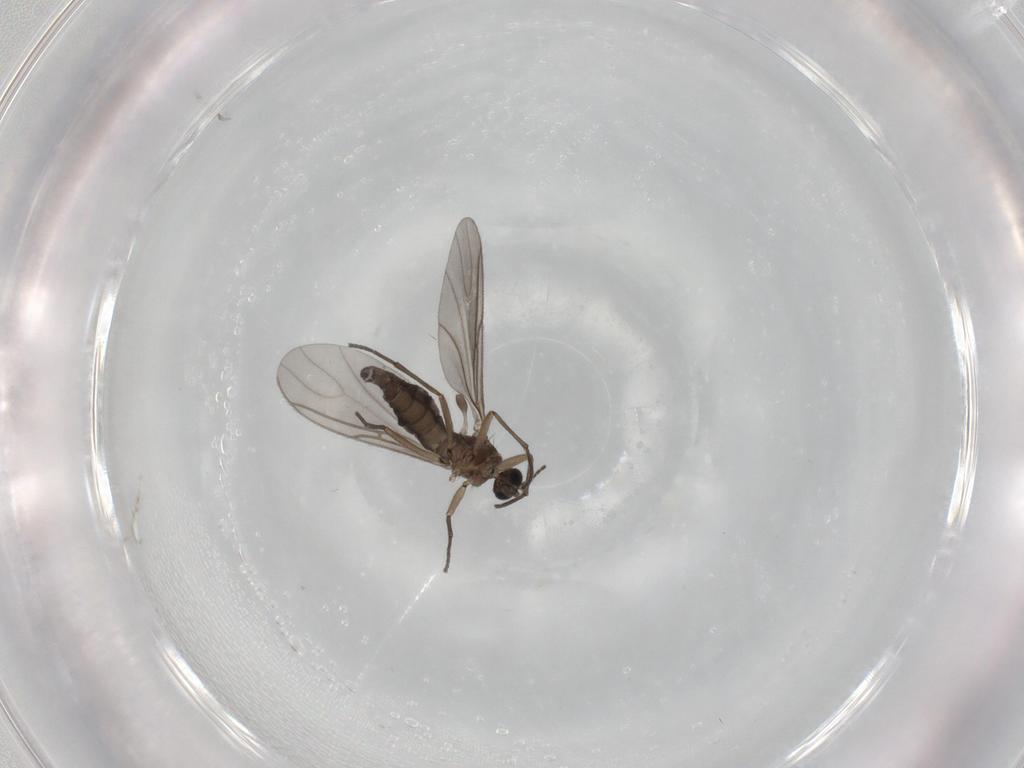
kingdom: Animalia
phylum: Arthropoda
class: Insecta
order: Diptera
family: Sciaridae
